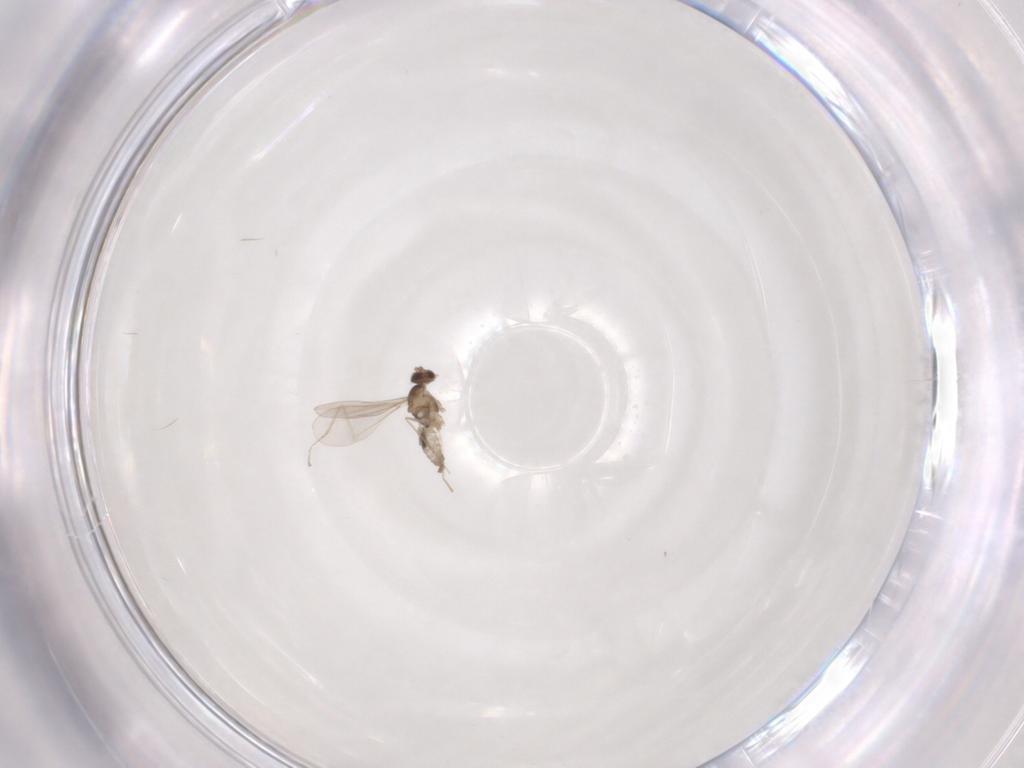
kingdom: Animalia
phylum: Arthropoda
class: Insecta
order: Diptera
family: Cecidomyiidae
